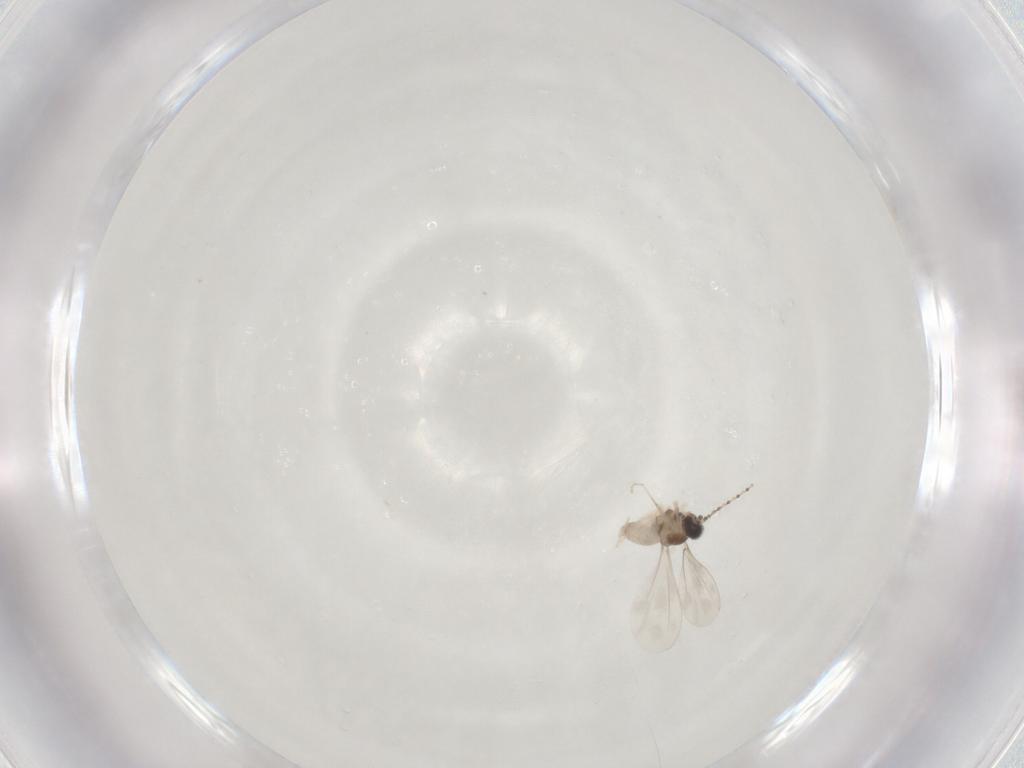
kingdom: Animalia
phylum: Arthropoda
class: Insecta
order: Diptera
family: Cecidomyiidae
